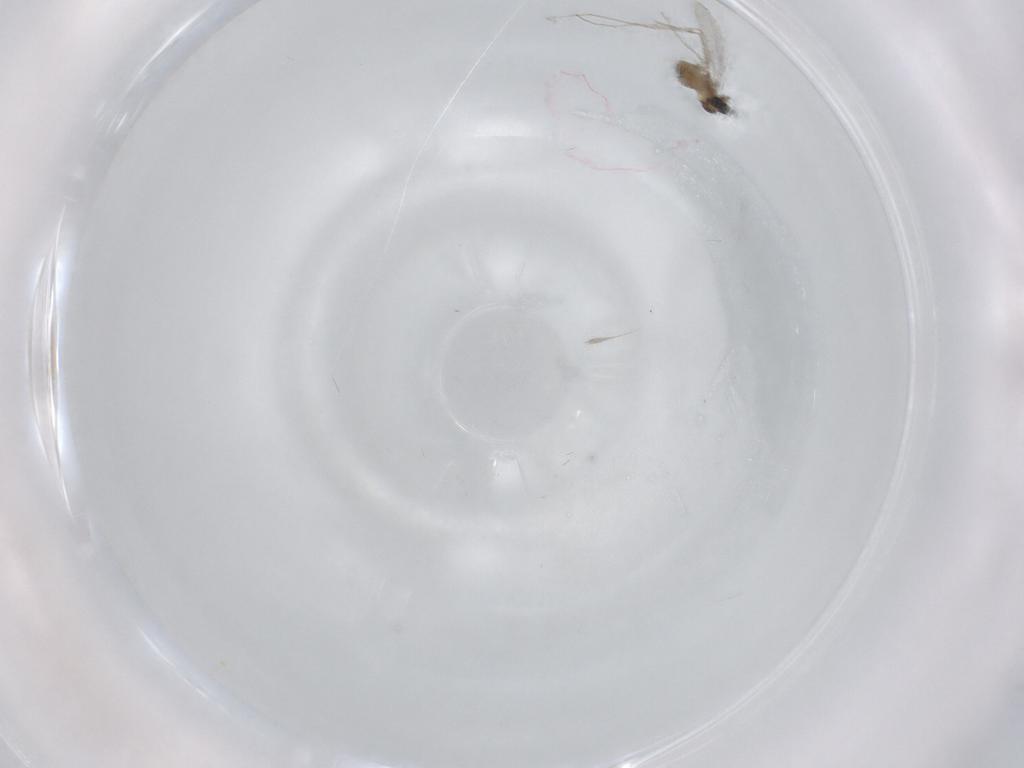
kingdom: Animalia
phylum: Arthropoda
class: Insecta
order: Diptera
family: Cecidomyiidae
